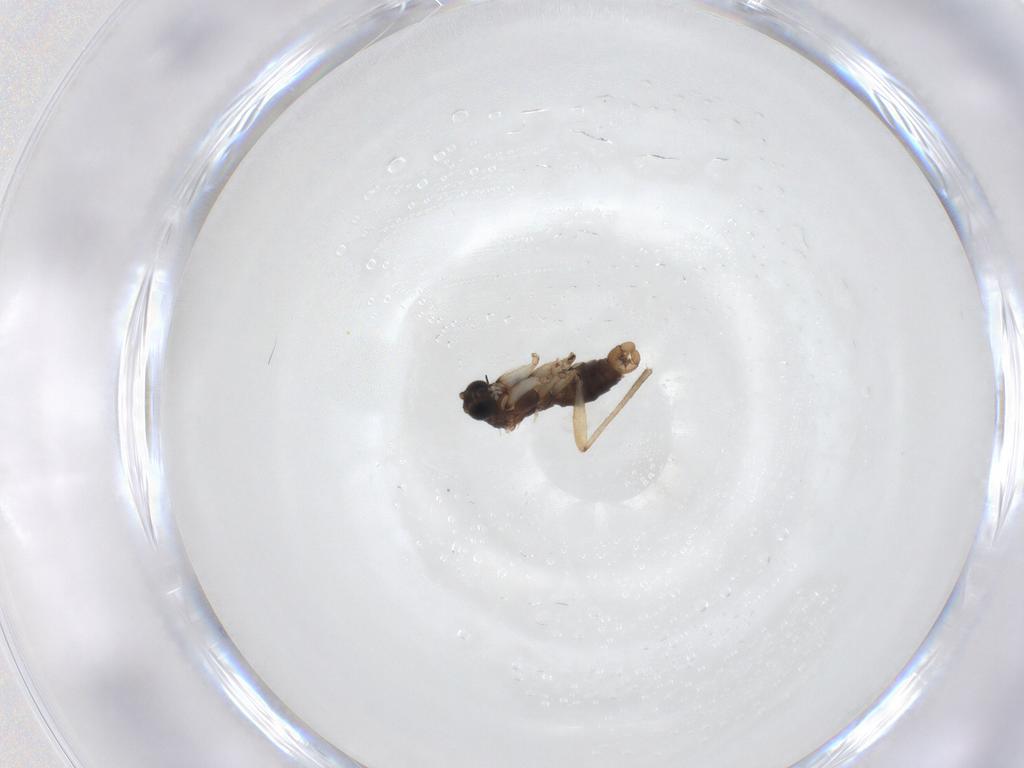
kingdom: Animalia
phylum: Arthropoda
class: Insecta
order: Diptera
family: Sciaridae
